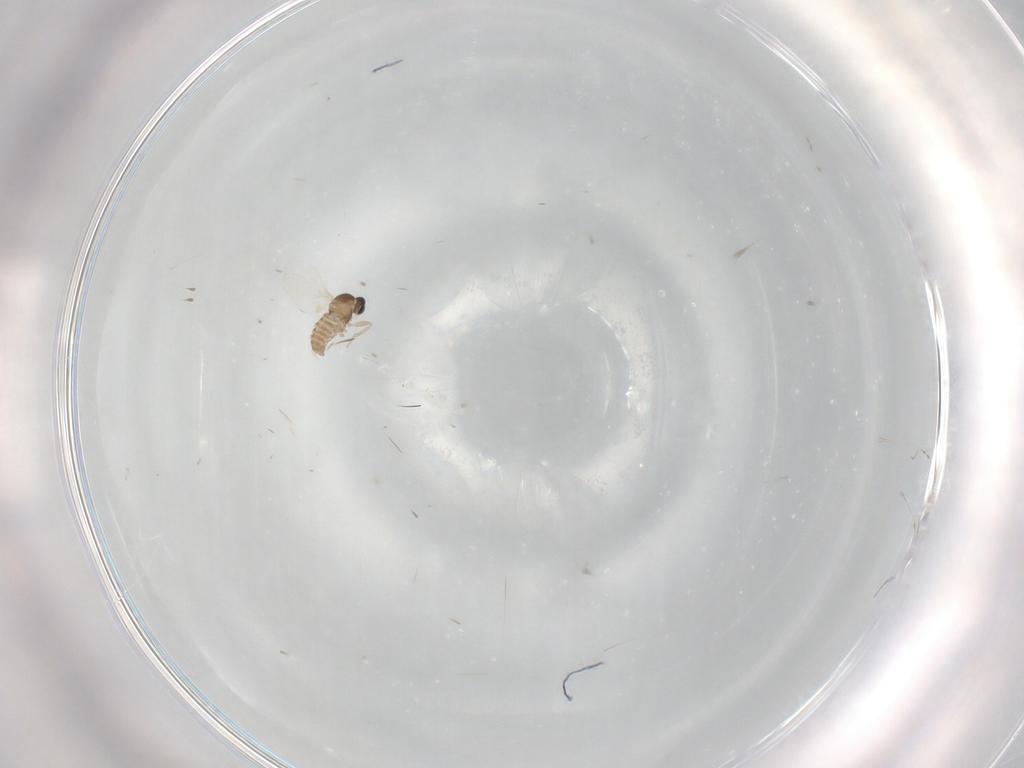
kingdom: Animalia
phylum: Arthropoda
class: Insecta
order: Diptera
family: Cecidomyiidae
